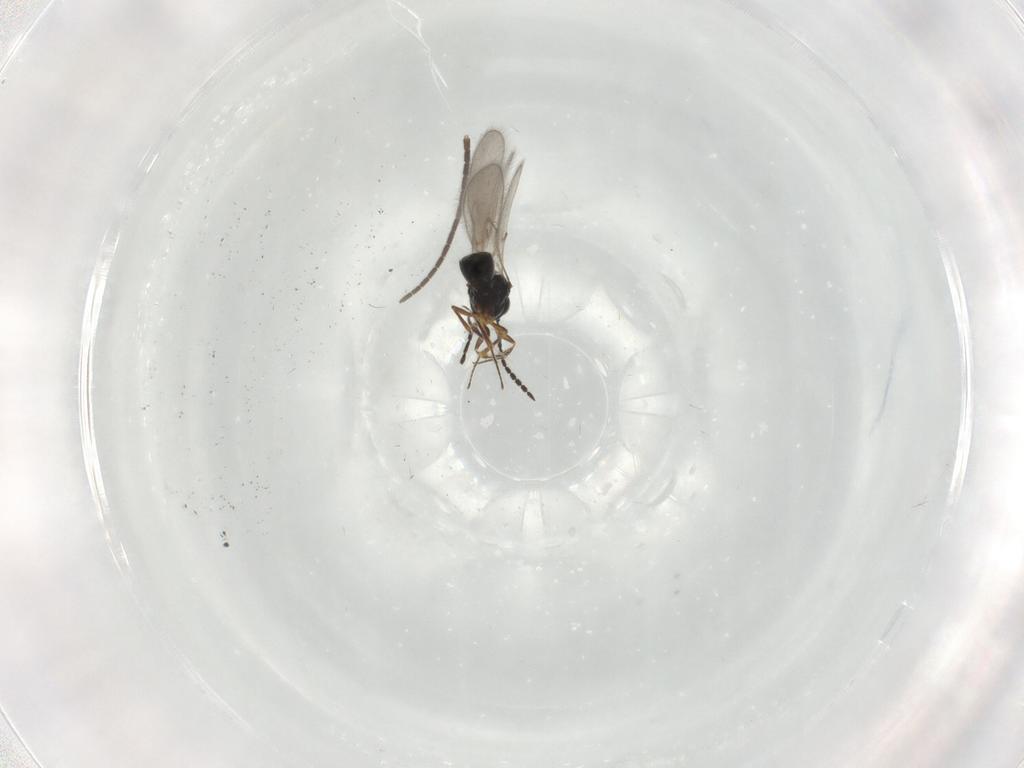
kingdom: Animalia
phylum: Arthropoda
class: Insecta
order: Hymenoptera
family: Scelionidae
